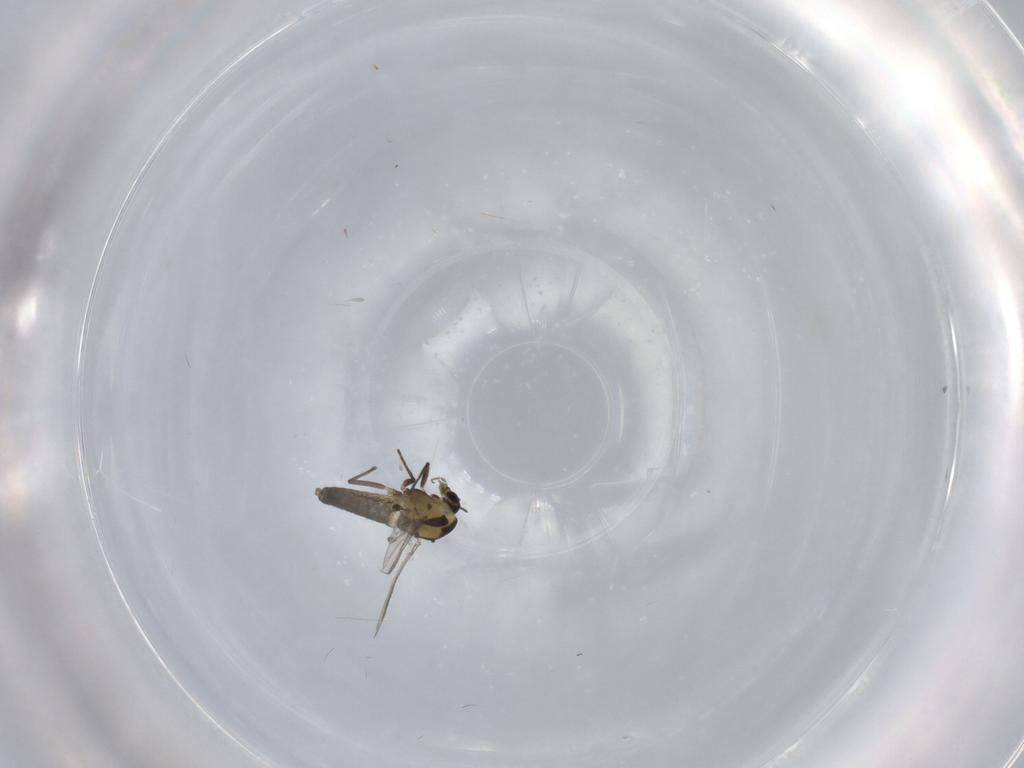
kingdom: Animalia
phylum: Arthropoda
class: Insecta
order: Diptera
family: Chironomidae
